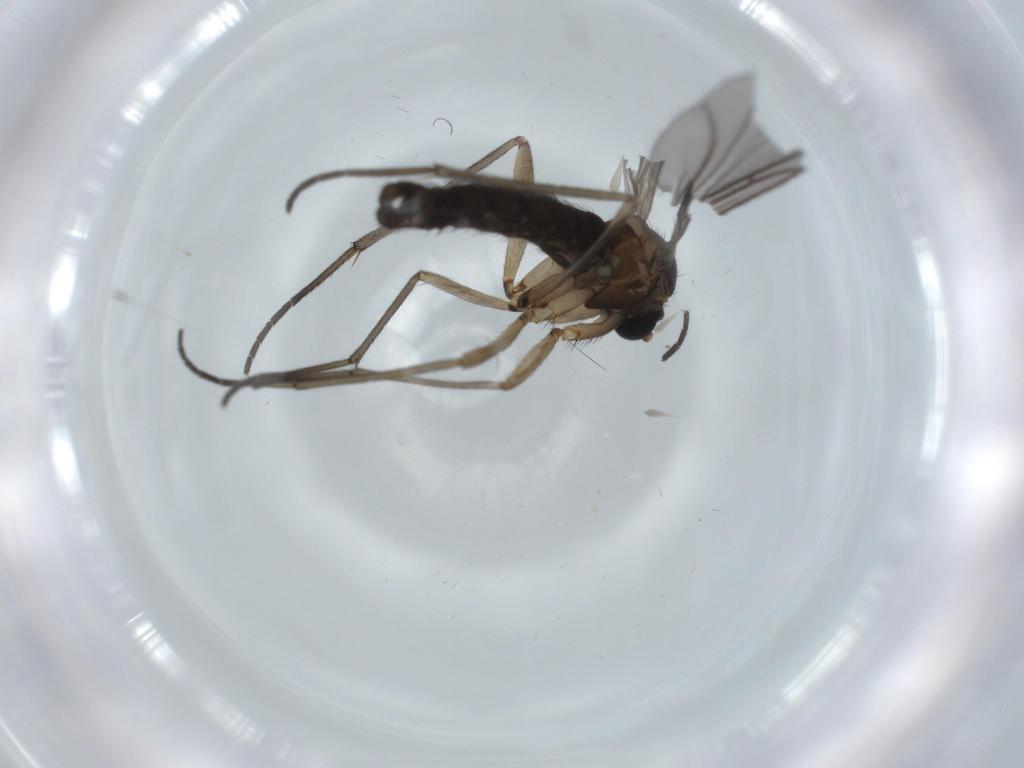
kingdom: Animalia
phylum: Arthropoda
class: Insecta
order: Diptera
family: Sciaridae
